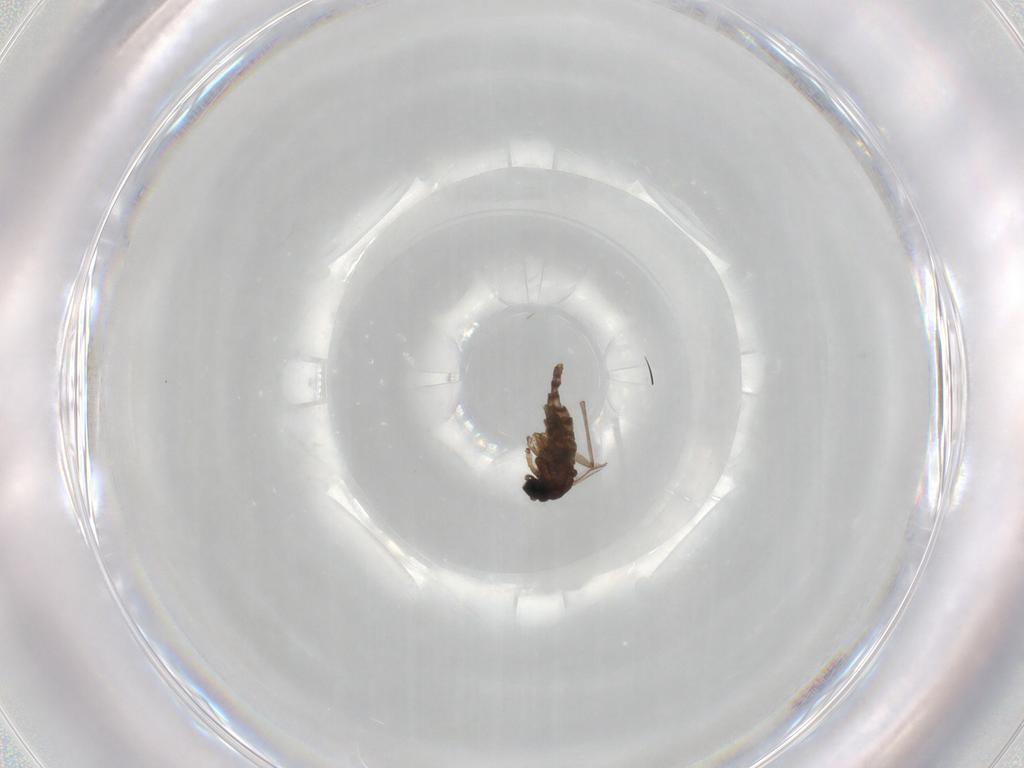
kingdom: Animalia
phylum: Arthropoda
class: Insecta
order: Diptera
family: Sciaridae
